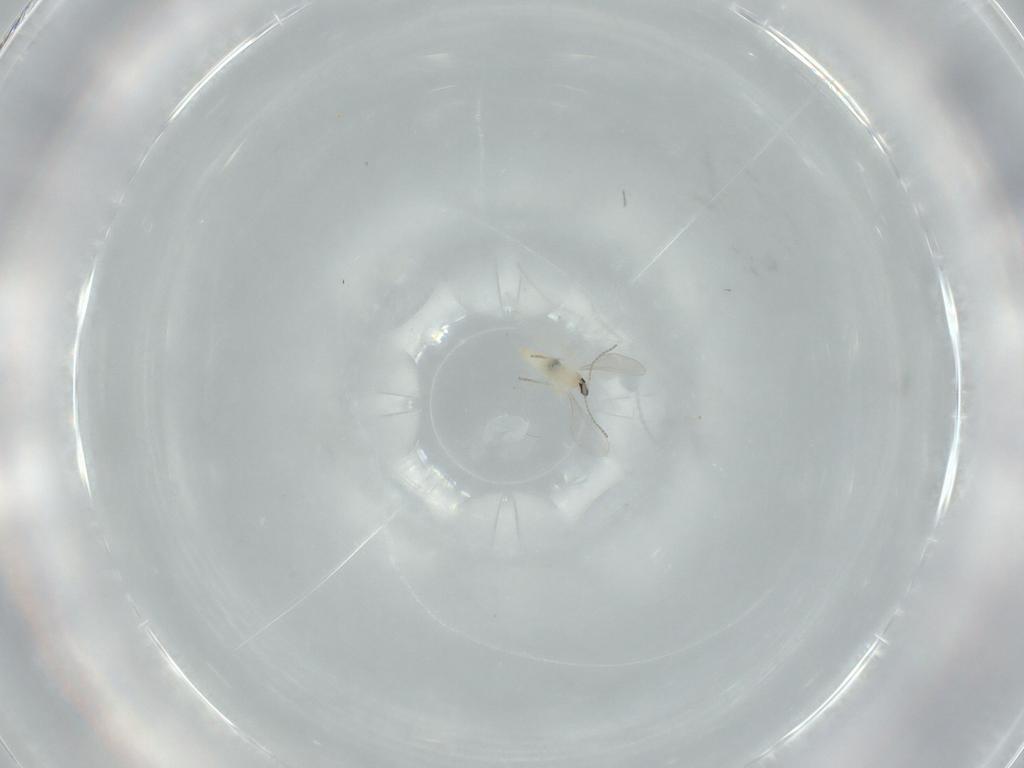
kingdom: Animalia
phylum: Arthropoda
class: Insecta
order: Diptera
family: Cecidomyiidae
